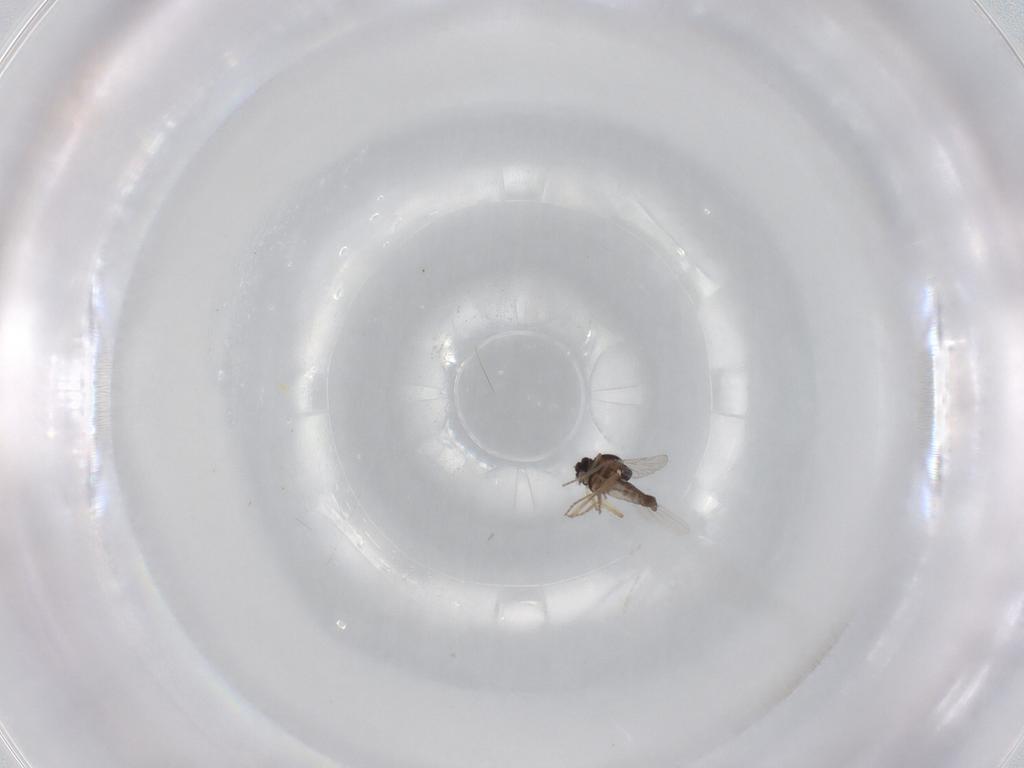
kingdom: Animalia
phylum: Arthropoda
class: Insecta
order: Diptera
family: Ceratopogonidae
